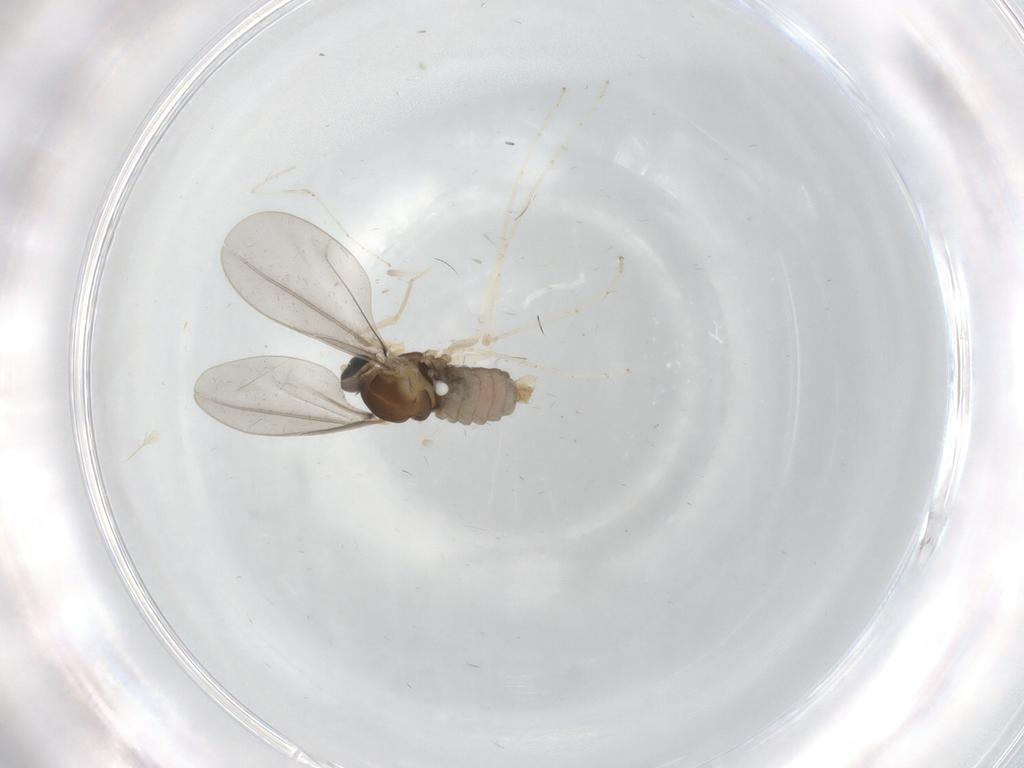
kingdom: Animalia
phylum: Arthropoda
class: Insecta
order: Diptera
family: Cecidomyiidae
